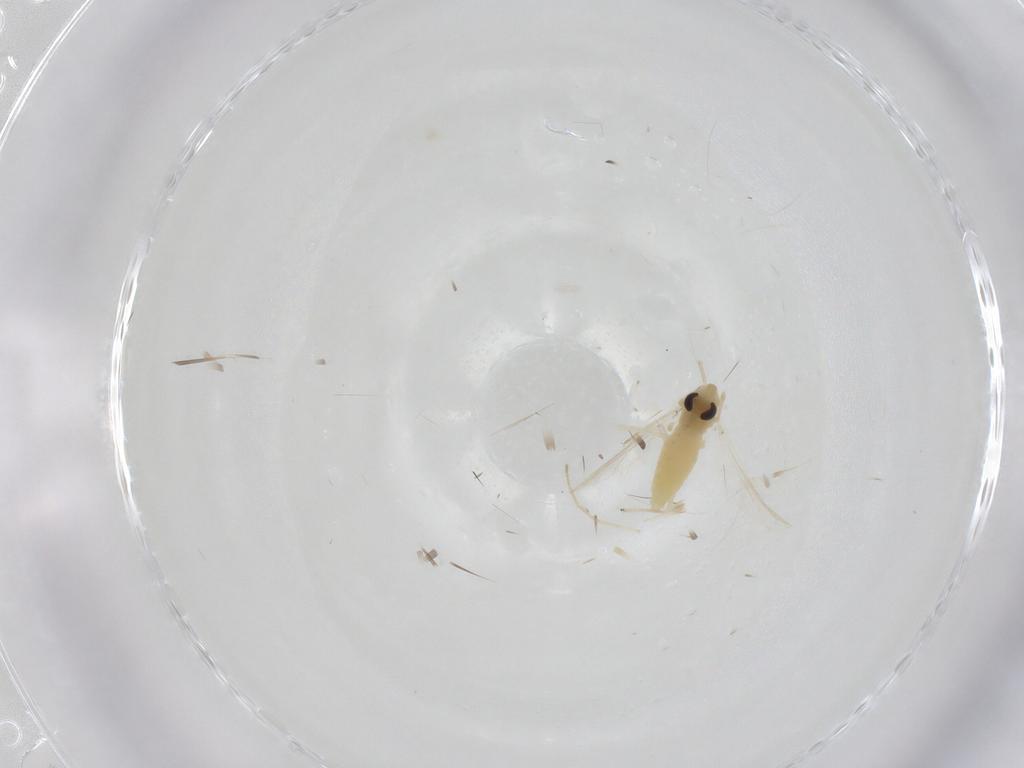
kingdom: Animalia
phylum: Arthropoda
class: Insecta
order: Diptera
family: Chironomidae
